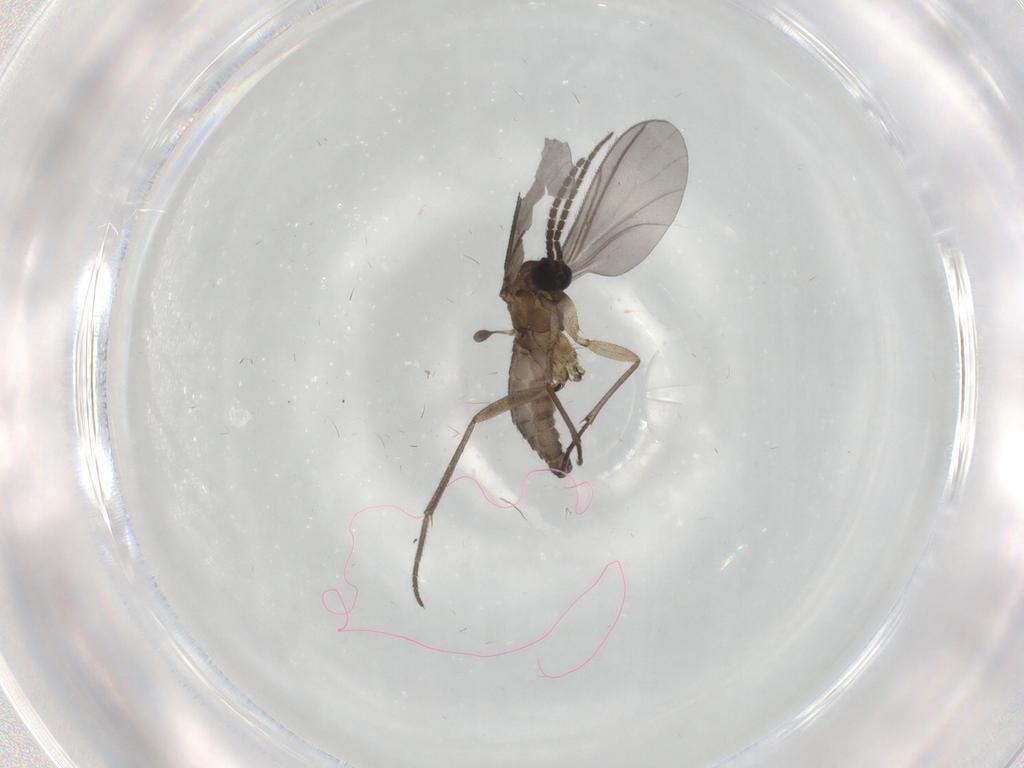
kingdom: Animalia
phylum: Arthropoda
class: Insecta
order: Diptera
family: Sciaridae
